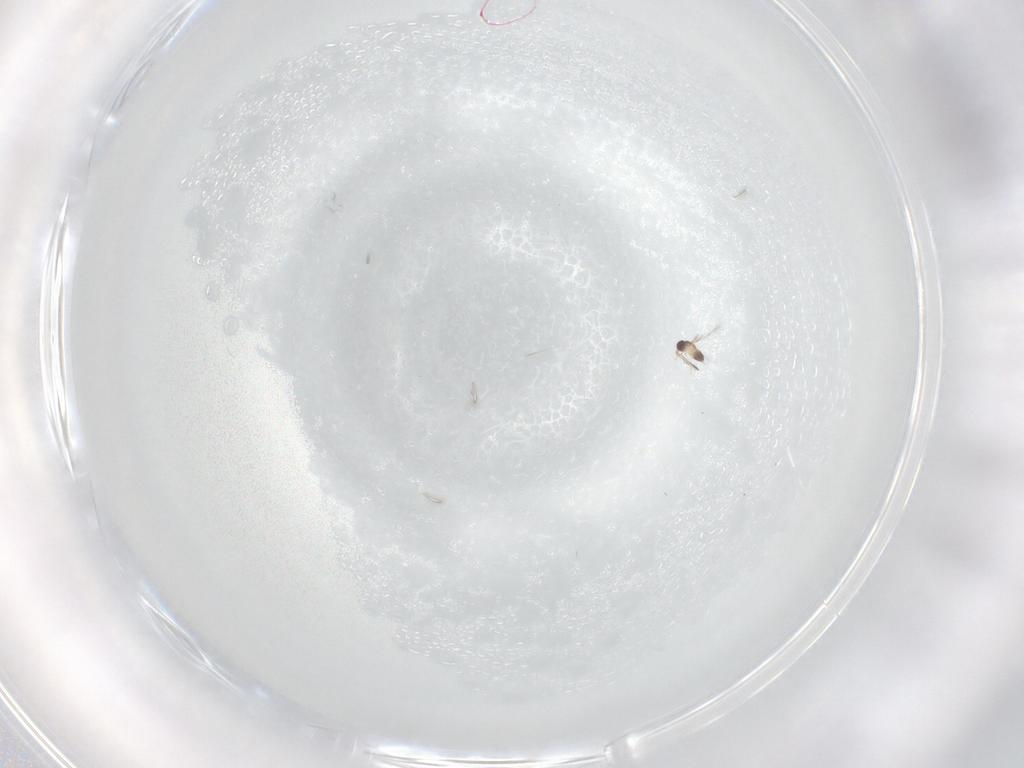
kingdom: Animalia
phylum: Arthropoda
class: Insecta
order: Hymenoptera
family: Mymaridae
